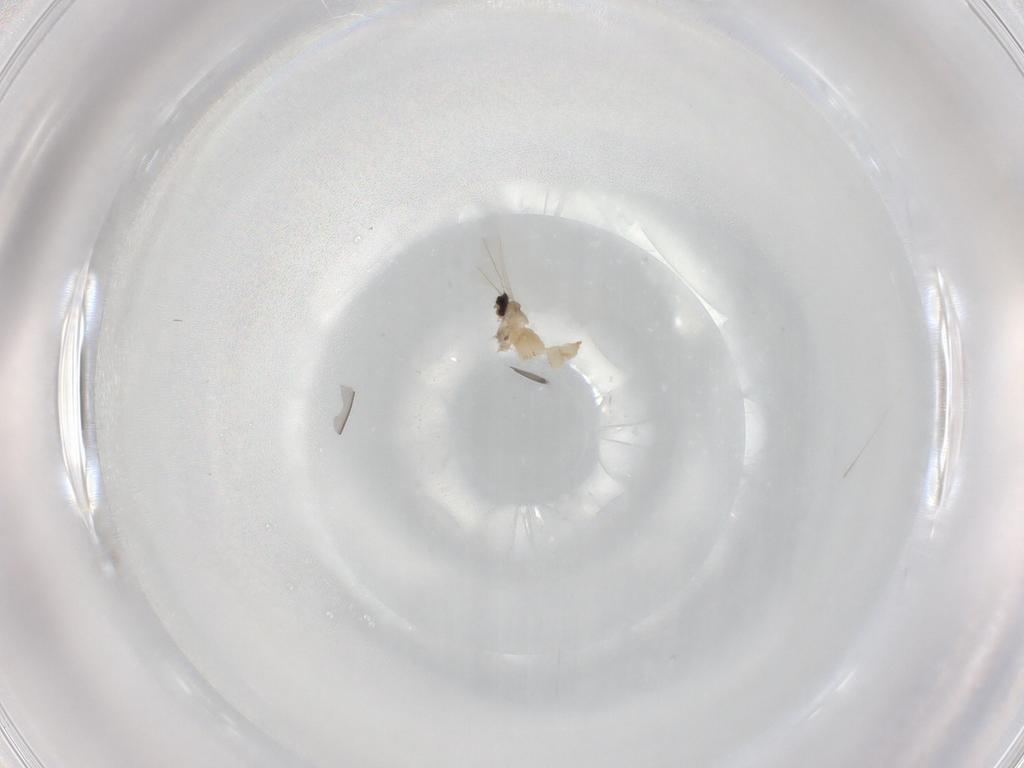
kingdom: Animalia
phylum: Arthropoda
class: Insecta
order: Diptera
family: Cecidomyiidae
